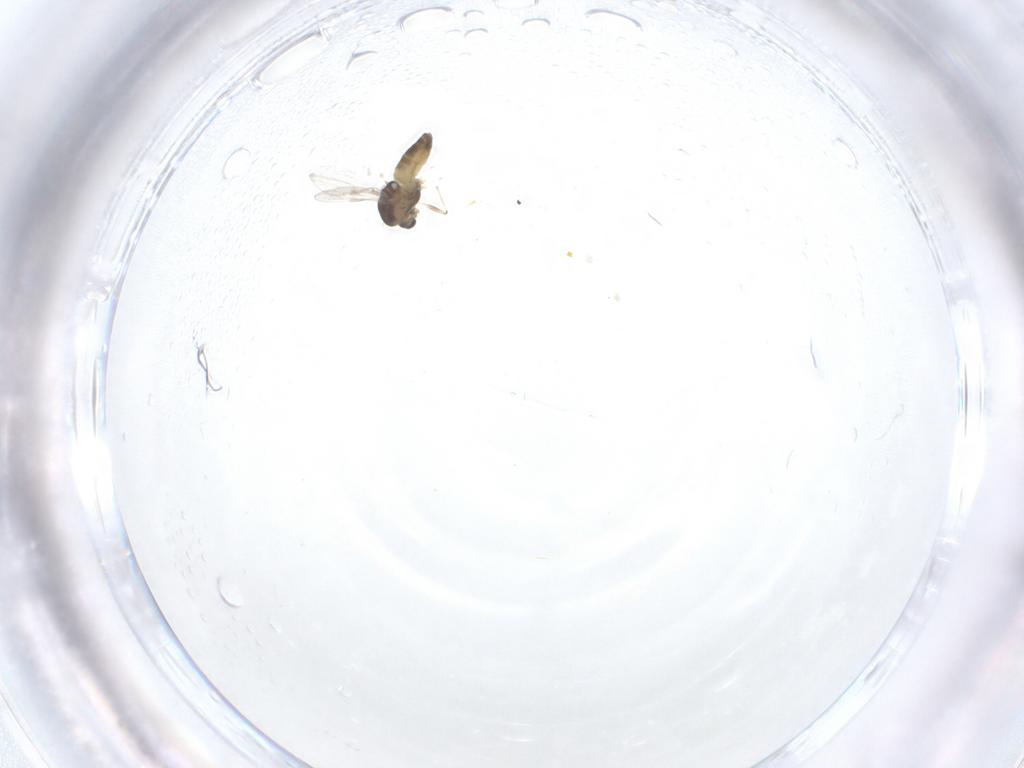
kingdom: Animalia
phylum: Arthropoda
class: Insecta
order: Diptera
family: Chironomidae
